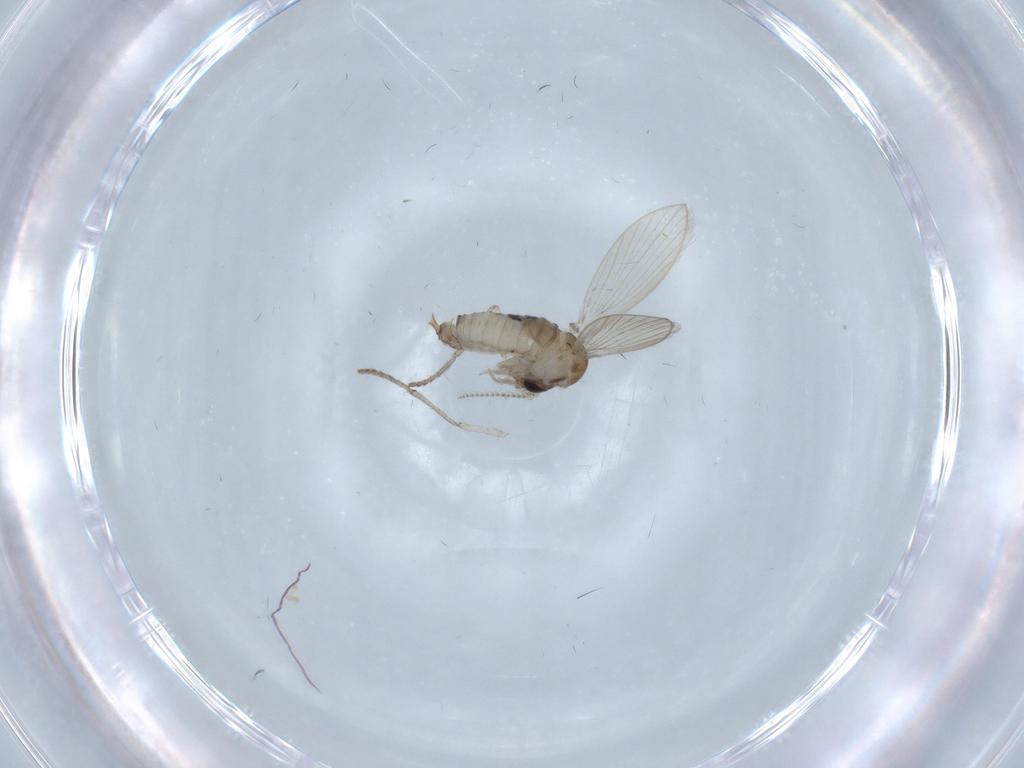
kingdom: Animalia
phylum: Arthropoda
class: Insecta
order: Diptera
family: Psychodidae
